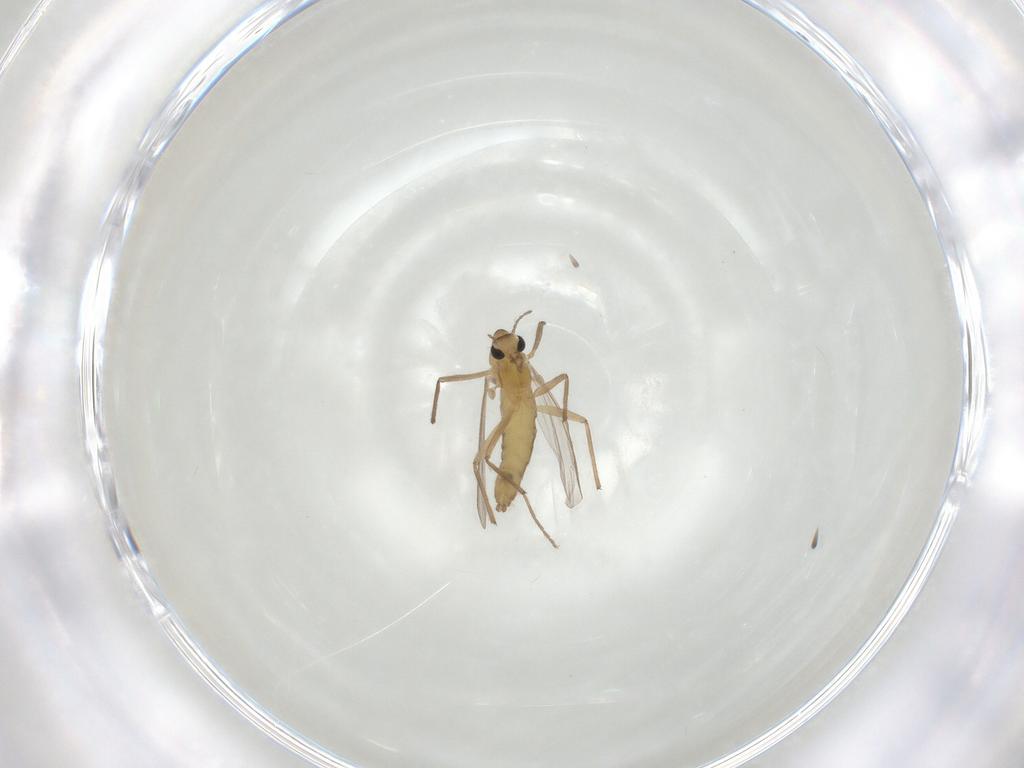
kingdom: Animalia
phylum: Arthropoda
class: Insecta
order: Diptera
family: Chironomidae
